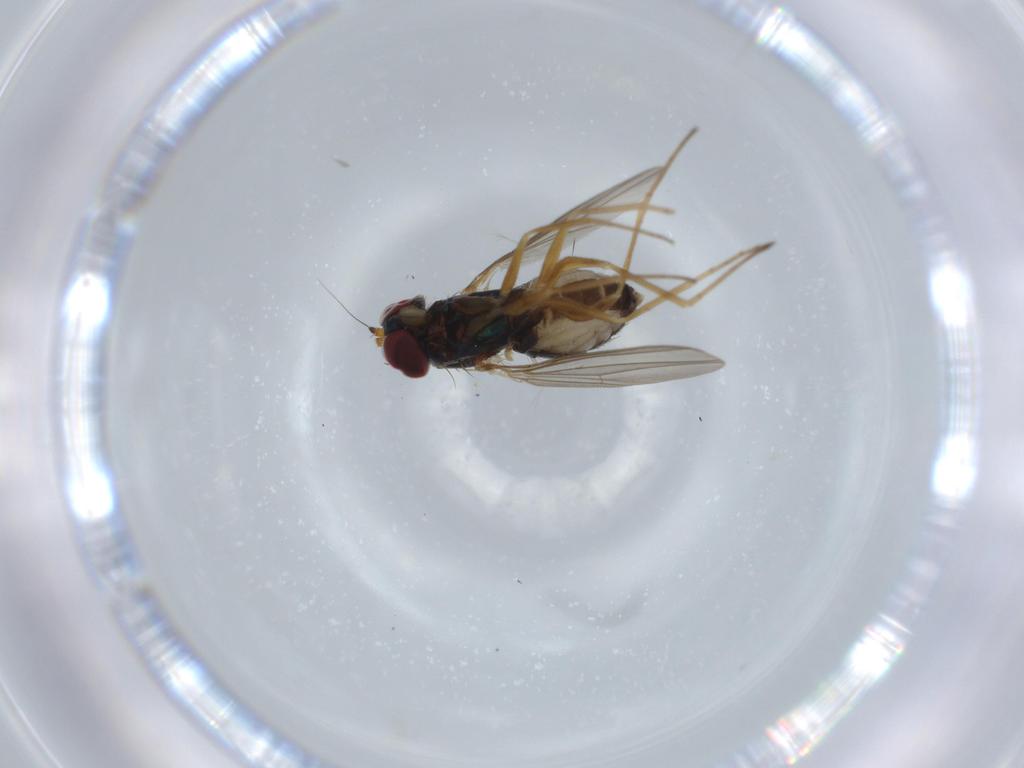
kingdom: Animalia
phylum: Arthropoda
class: Insecta
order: Diptera
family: Dolichopodidae
